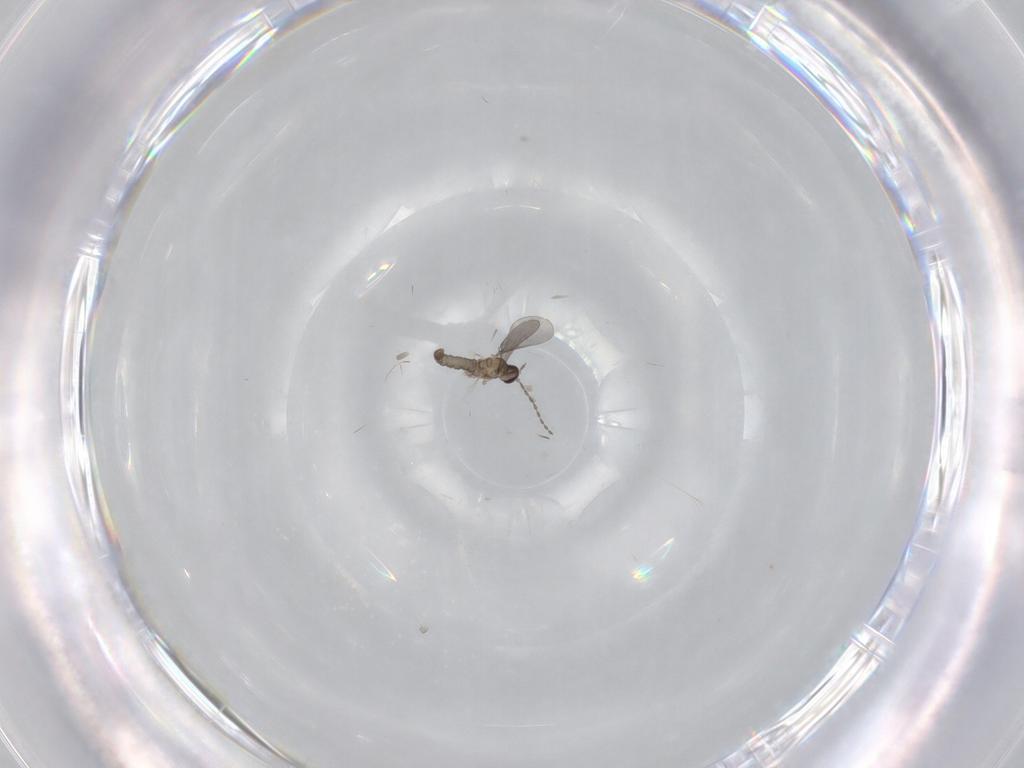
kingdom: Animalia
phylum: Arthropoda
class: Insecta
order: Diptera
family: Cecidomyiidae
